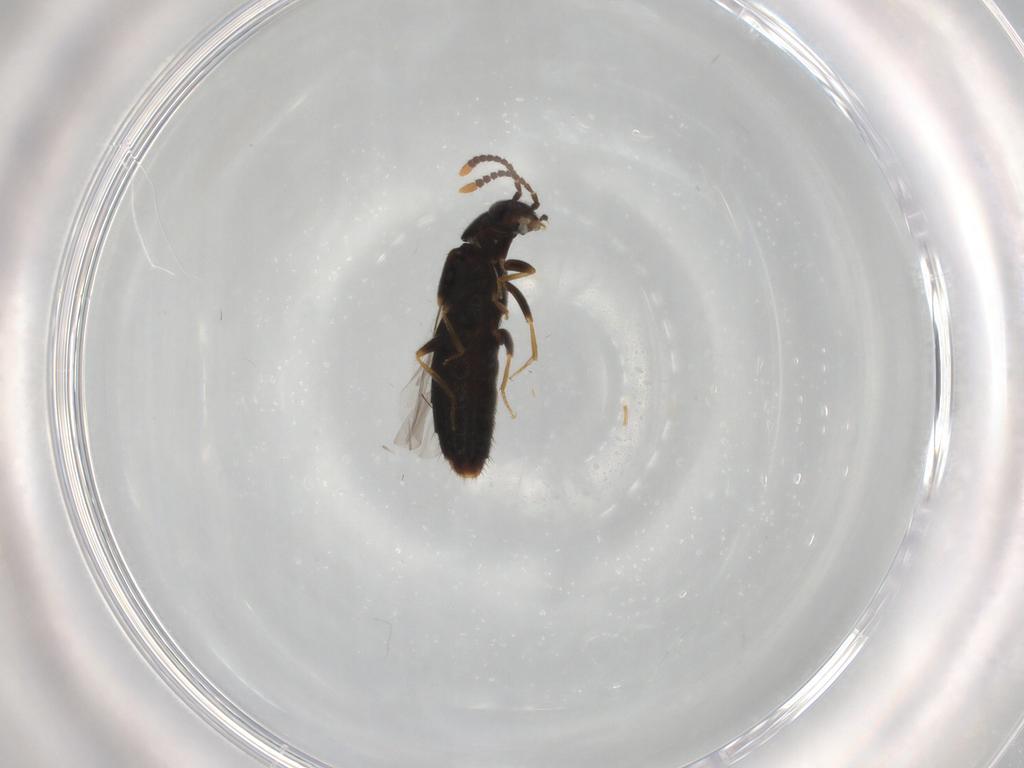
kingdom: Animalia
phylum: Arthropoda
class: Insecta
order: Coleoptera
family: Staphylinidae
